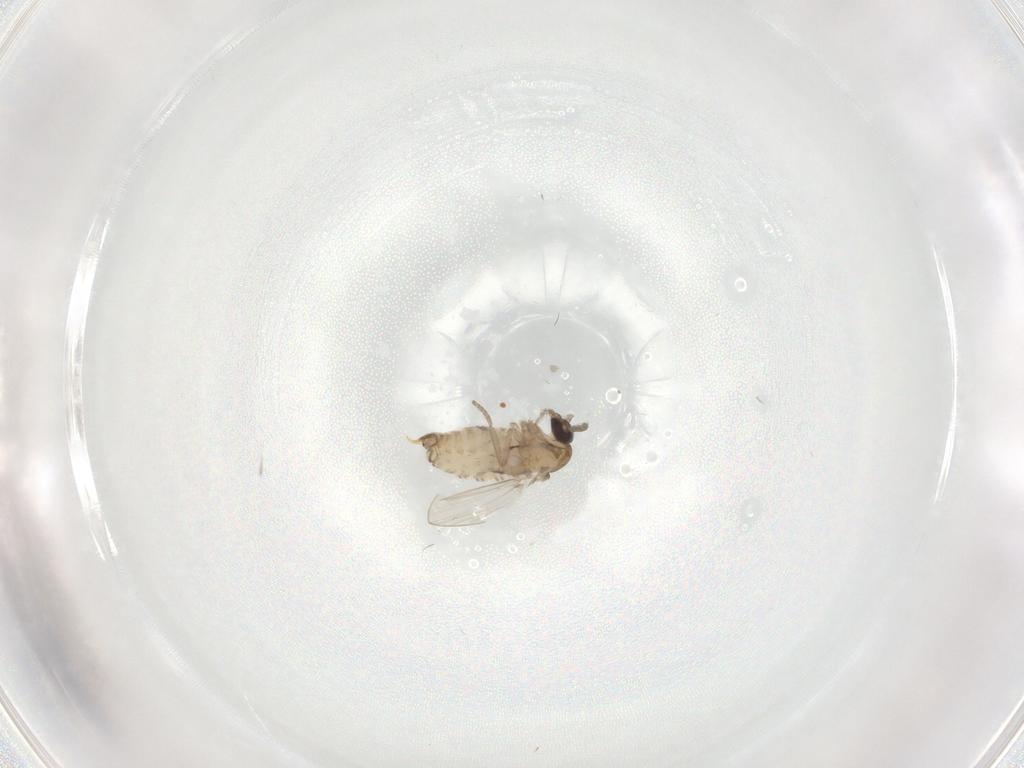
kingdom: Animalia
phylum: Arthropoda
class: Insecta
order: Diptera
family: Psychodidae
